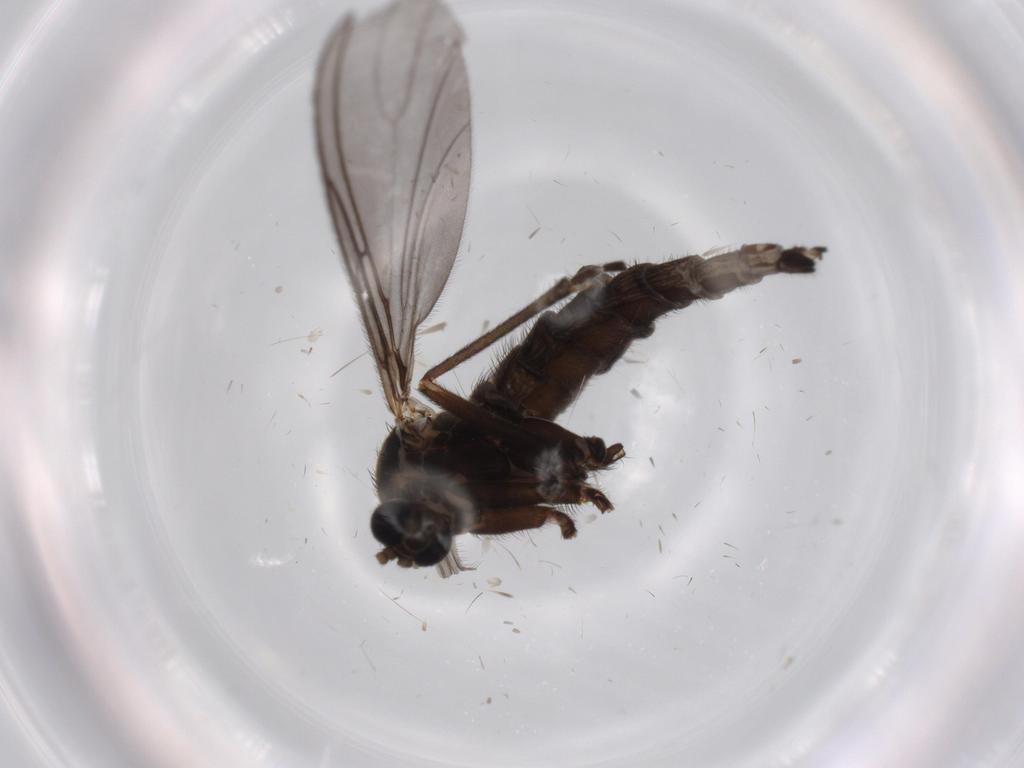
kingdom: Animalia
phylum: Arthropoda
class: Insecta
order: Diptera
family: Sciaridae
